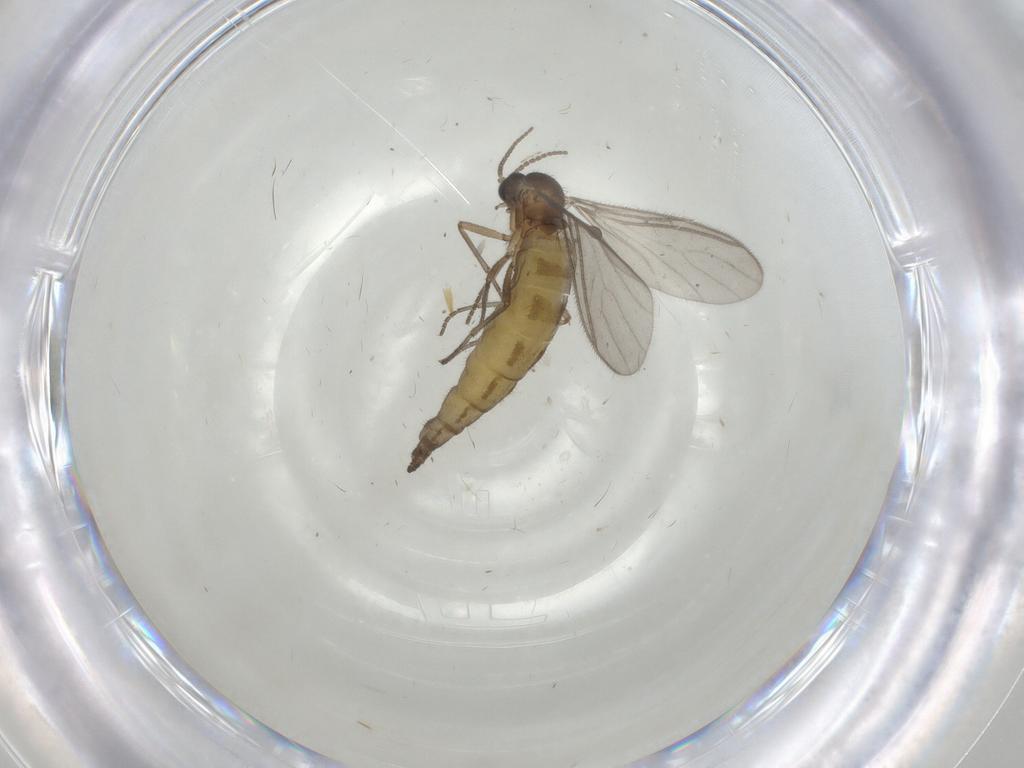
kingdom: Animalia
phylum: Arthropoda
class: Insecta
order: Diptera
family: Sciaridae
